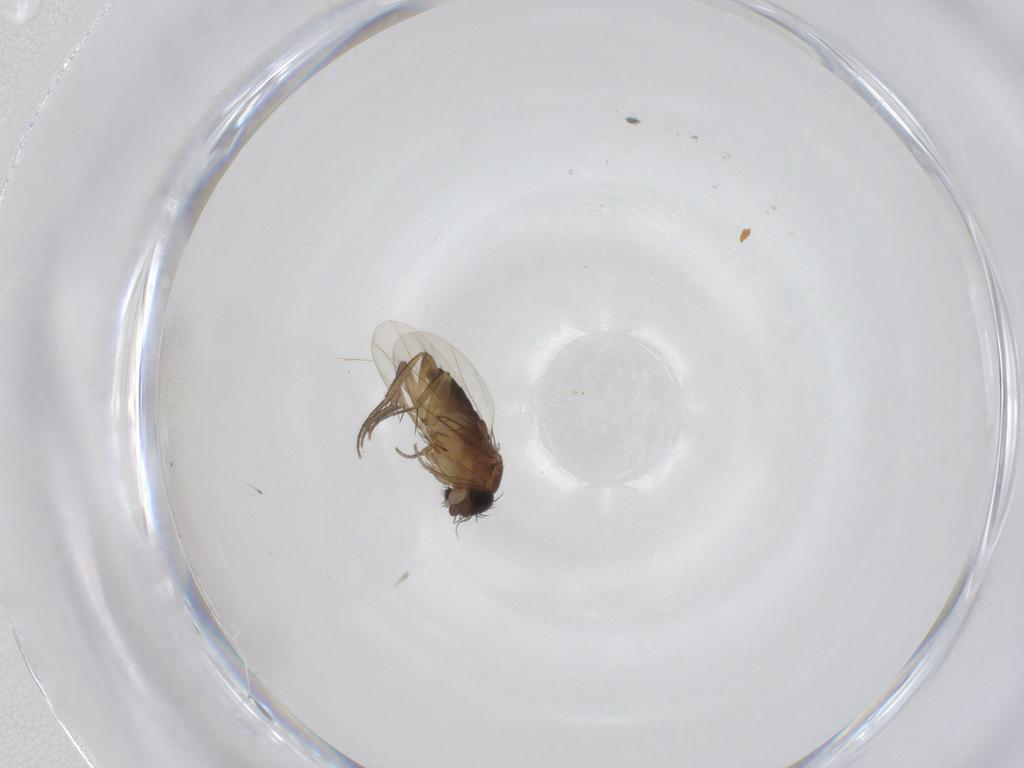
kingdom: Animalia
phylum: Arthropoda
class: Insecta
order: Diptera
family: Phoridae
